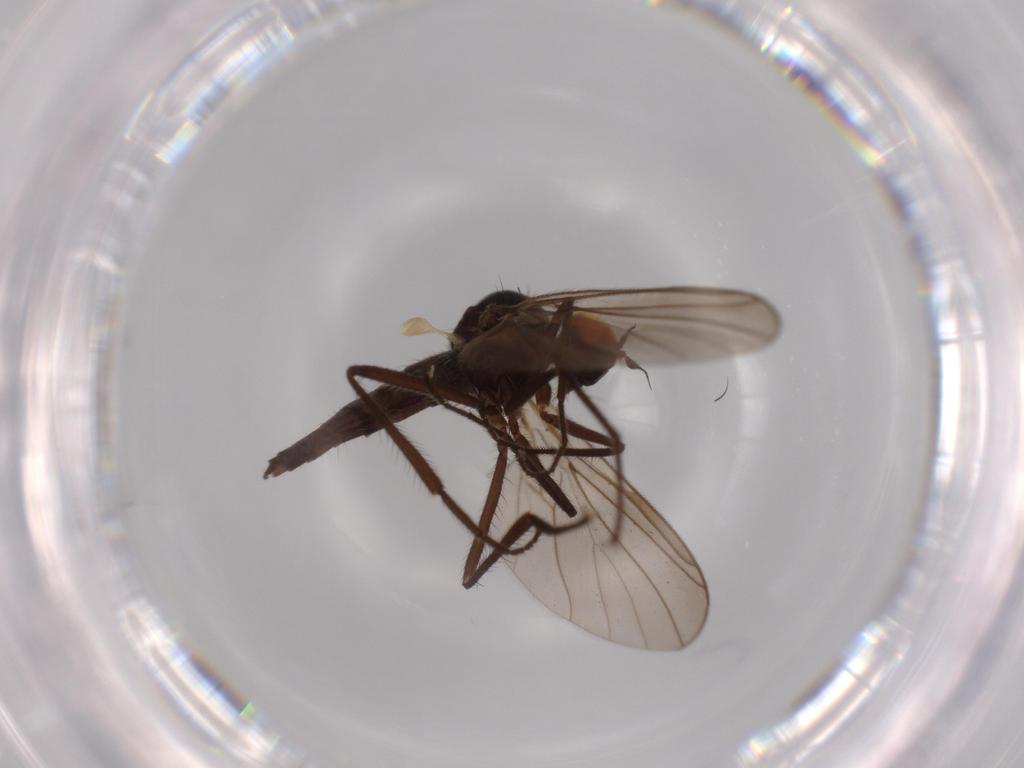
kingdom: Animalia
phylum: Arthropoda
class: Insecta
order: Diptera
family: Hybotidae
